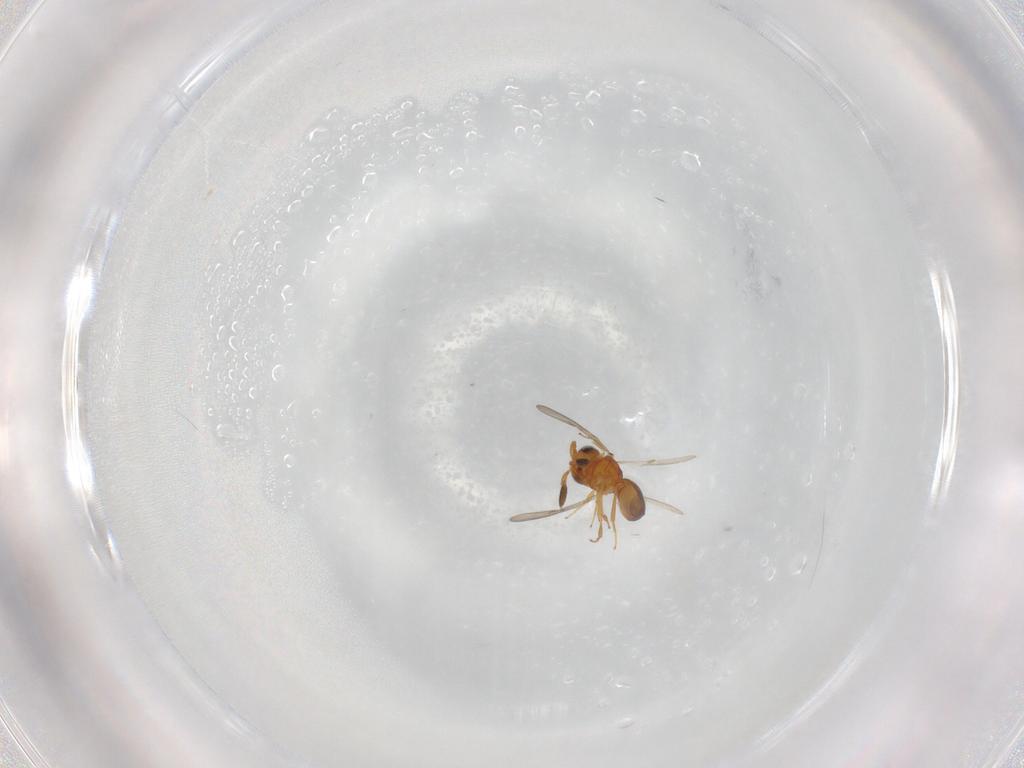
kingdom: Animalia
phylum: Arthropoda
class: Insecta
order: Hymenoptera
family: Scelionidae
